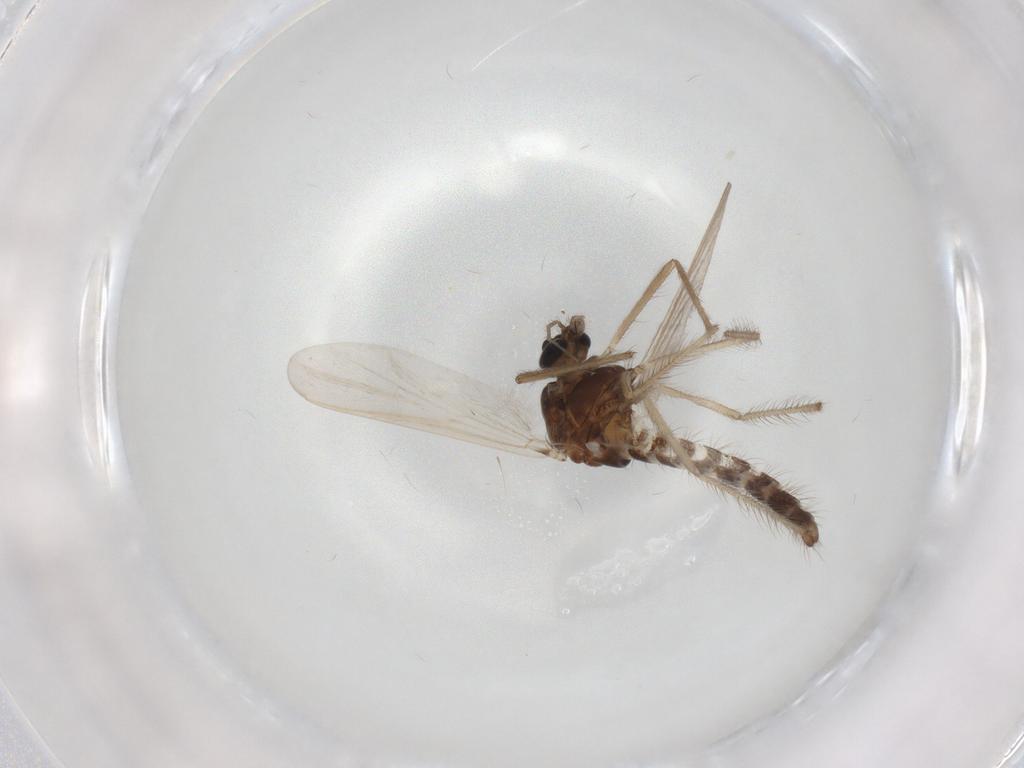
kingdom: Animalia
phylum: Arthropoda
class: Insecta
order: Diptera
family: Chironomidae
